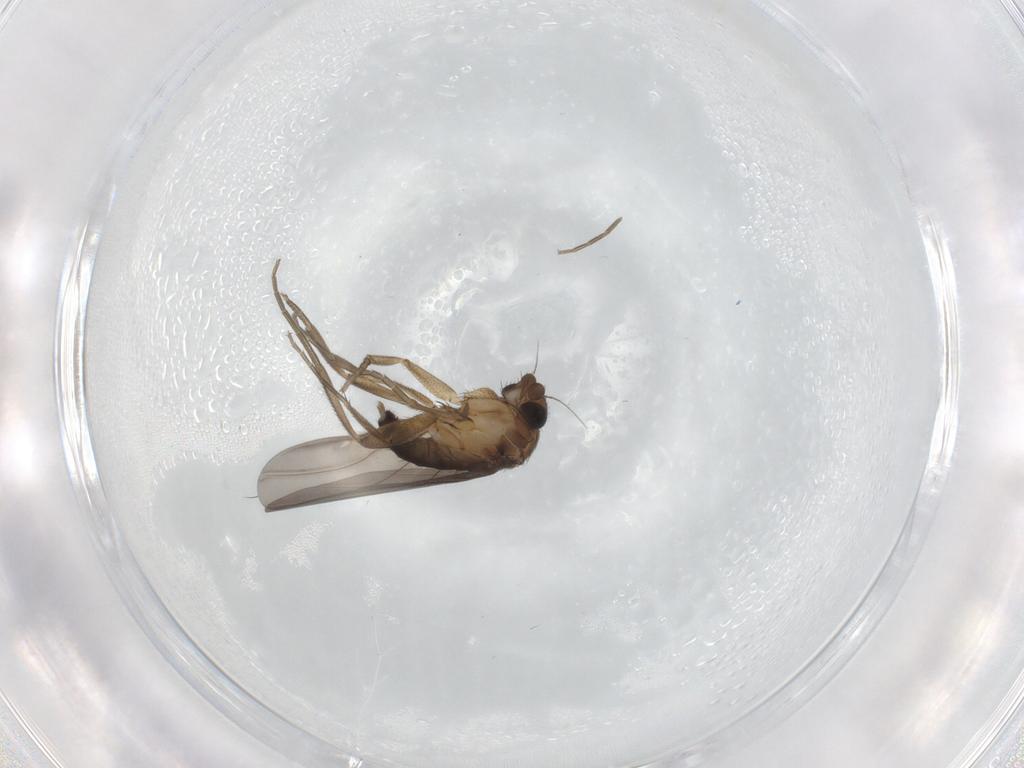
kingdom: Animalia
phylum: Arthropoda
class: Insecta
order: Diptera
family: Phoridae
